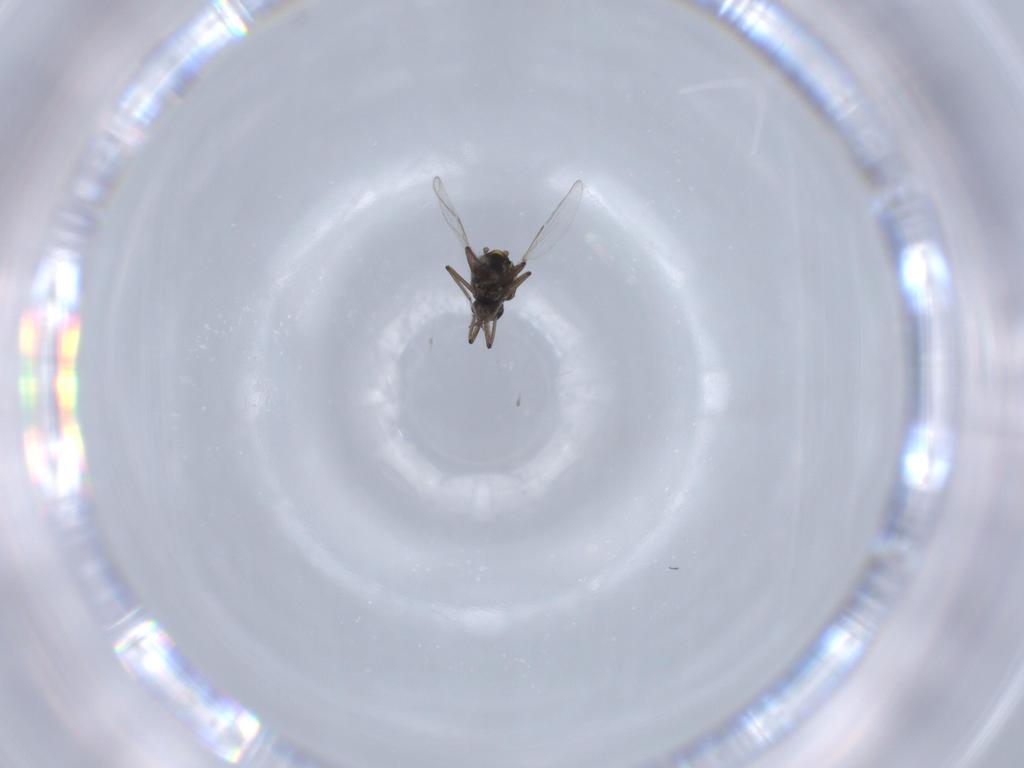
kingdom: Animalia
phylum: Arthropoda
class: Insecta
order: Diptera
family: Ceratopogonidae
